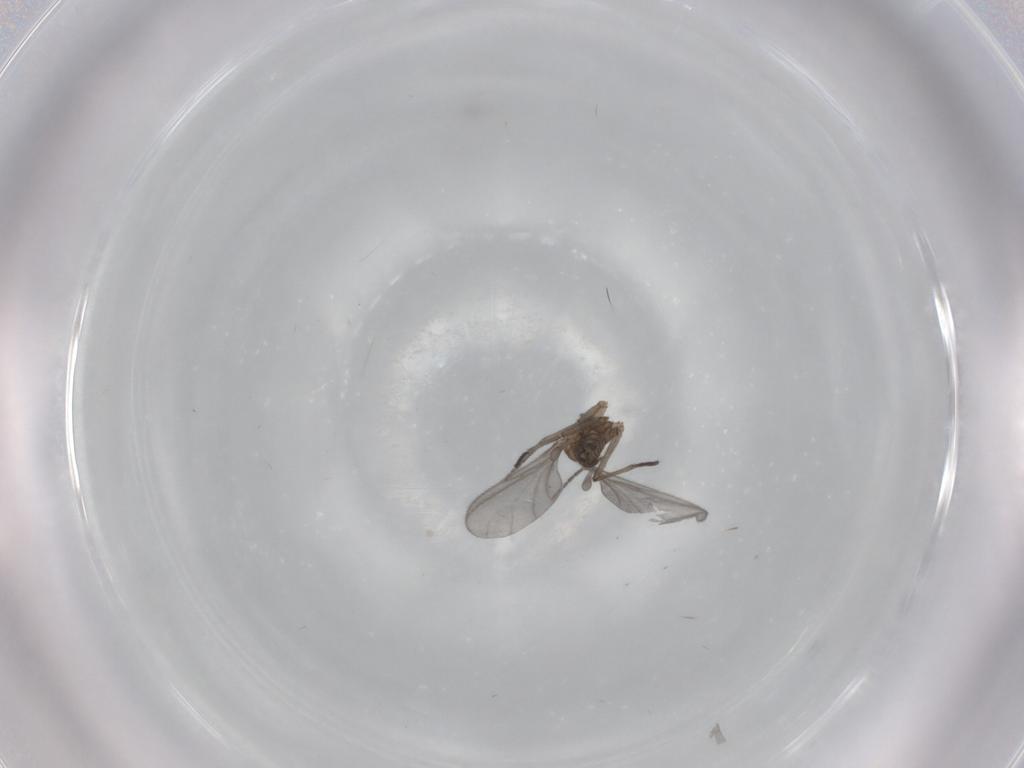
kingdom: Animalia
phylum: Arthropoda
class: Insecta
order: Diptera
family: Sciaridae
